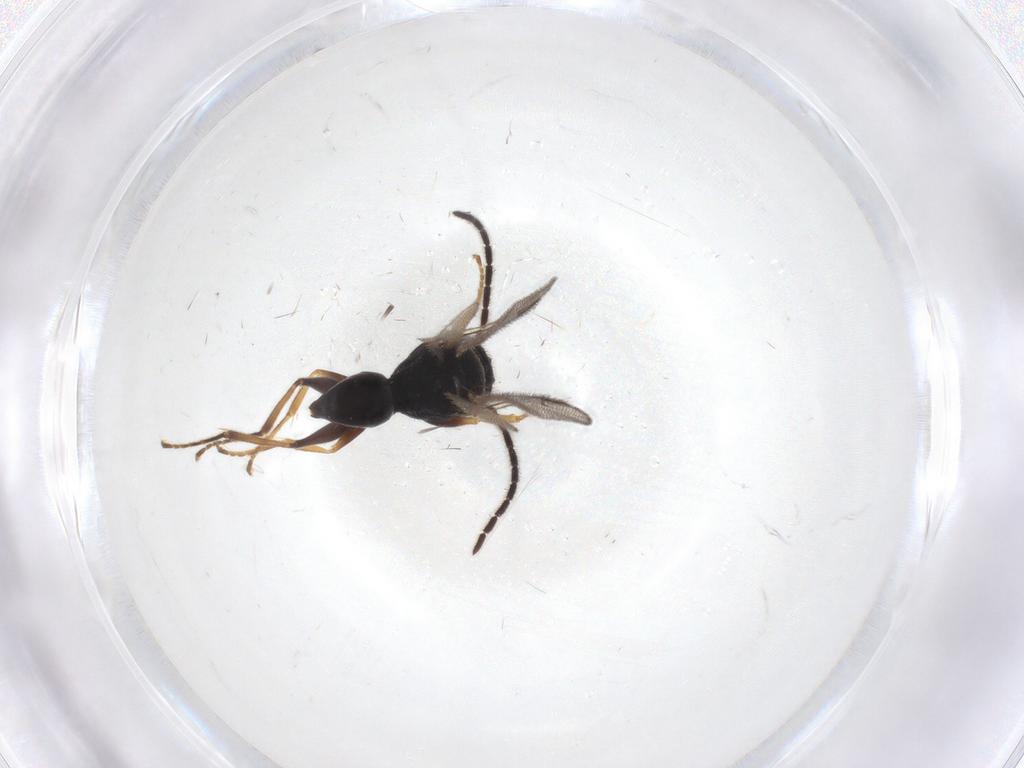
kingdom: Animalia
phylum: Arthropoda
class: Insecta
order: Hymenoptera
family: Dryinidae
